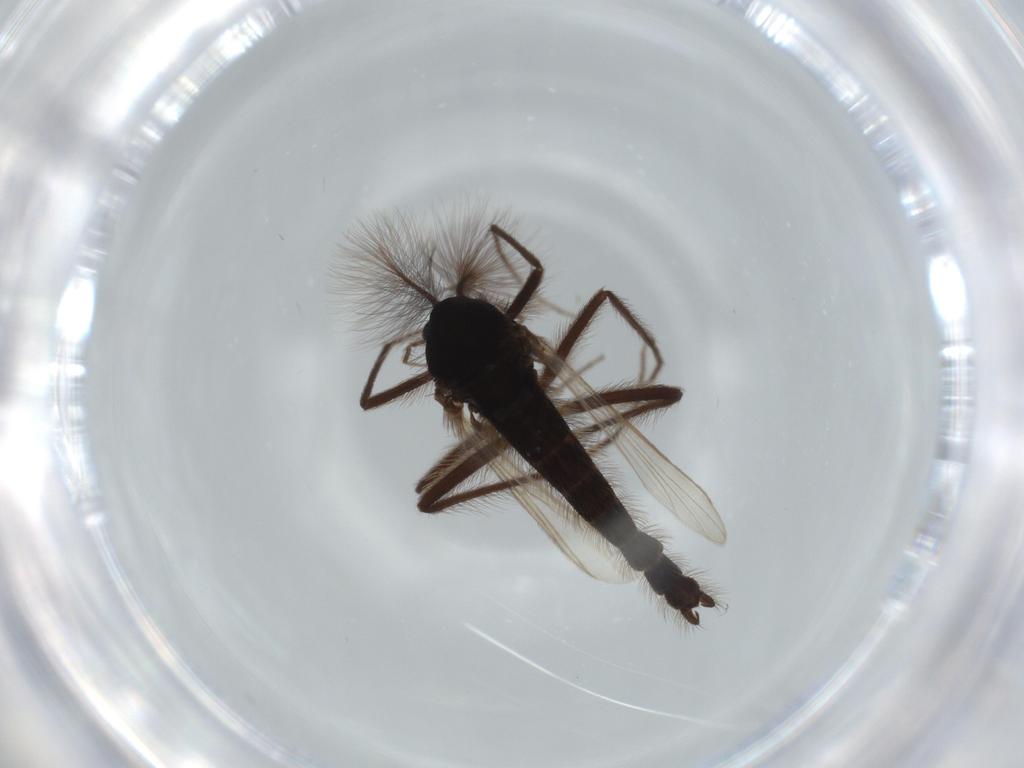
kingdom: Animalia
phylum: Arthropoda
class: Insecta
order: Diptera
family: Chironomidae
